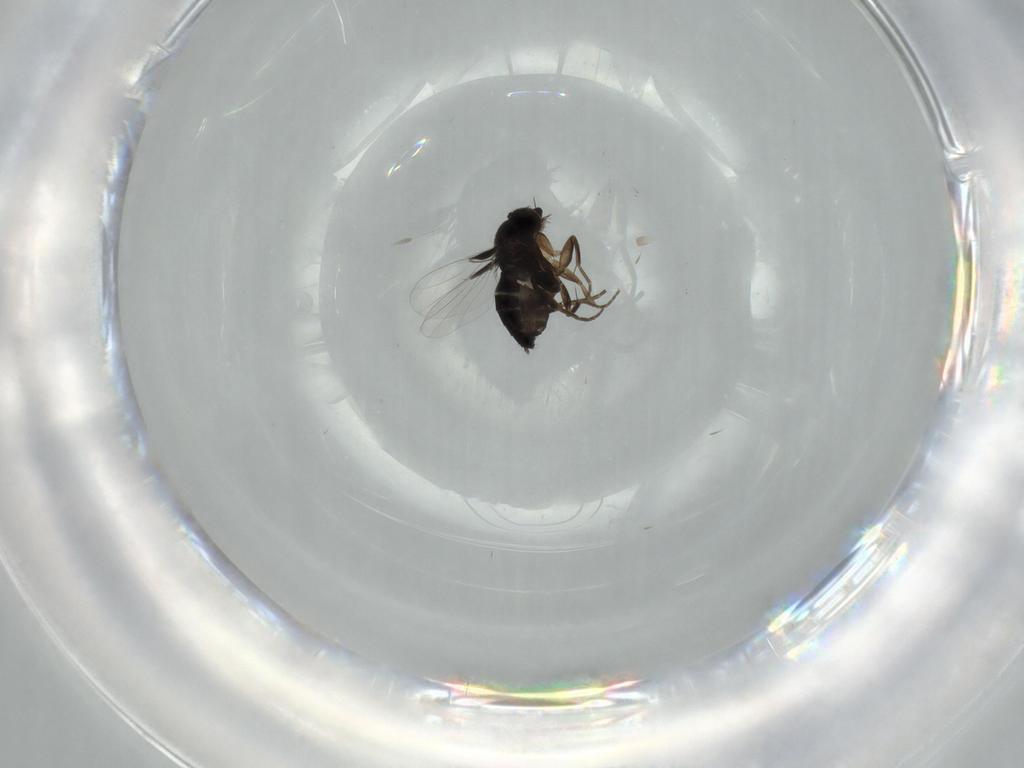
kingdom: Animalia
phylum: Arthropoda
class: Insecta
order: Diptera
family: Phoridae
